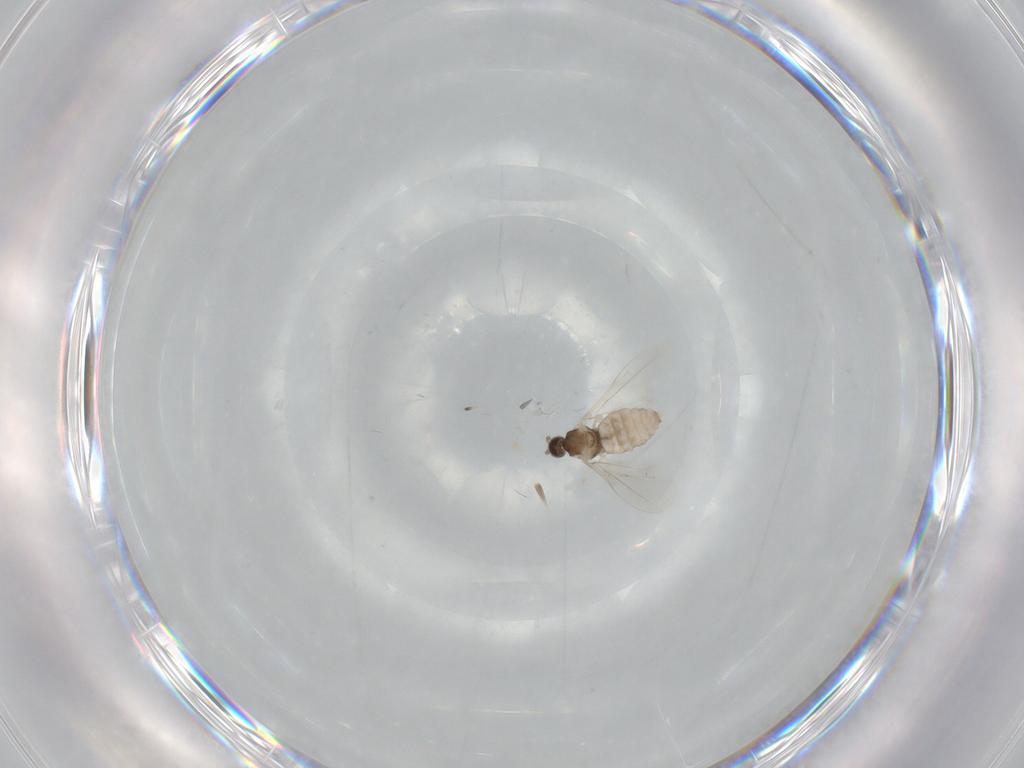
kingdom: Animalia
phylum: Arthropoda
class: Insecta
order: Diptera
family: Cecidomyiidae
